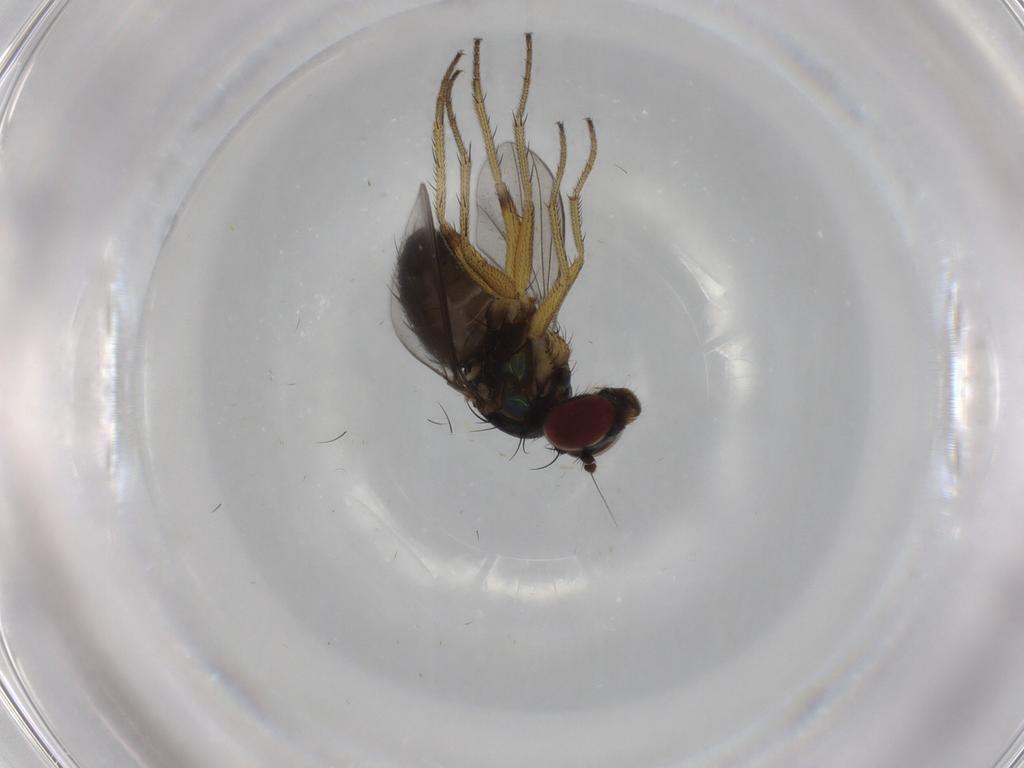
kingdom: Animalia
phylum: Arthropoda
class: Insecta
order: Diptera
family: Dolichopodidae
